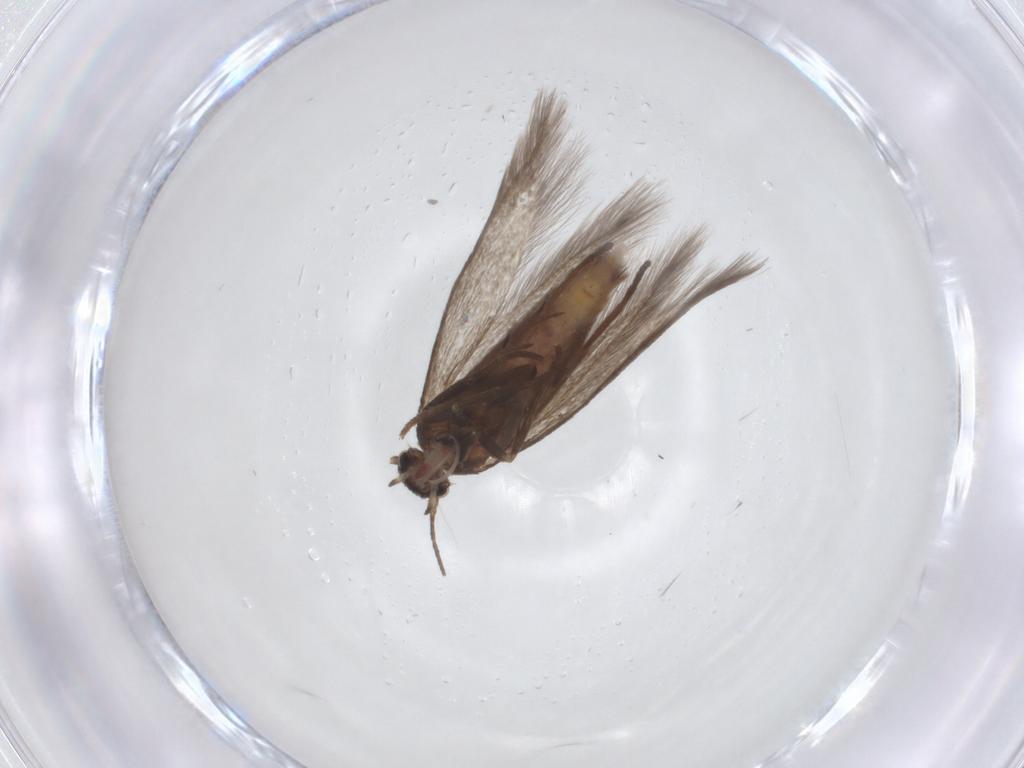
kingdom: Animalia
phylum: Arthropoda
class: Insecta
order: Lepidoptera
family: Scythrididae
